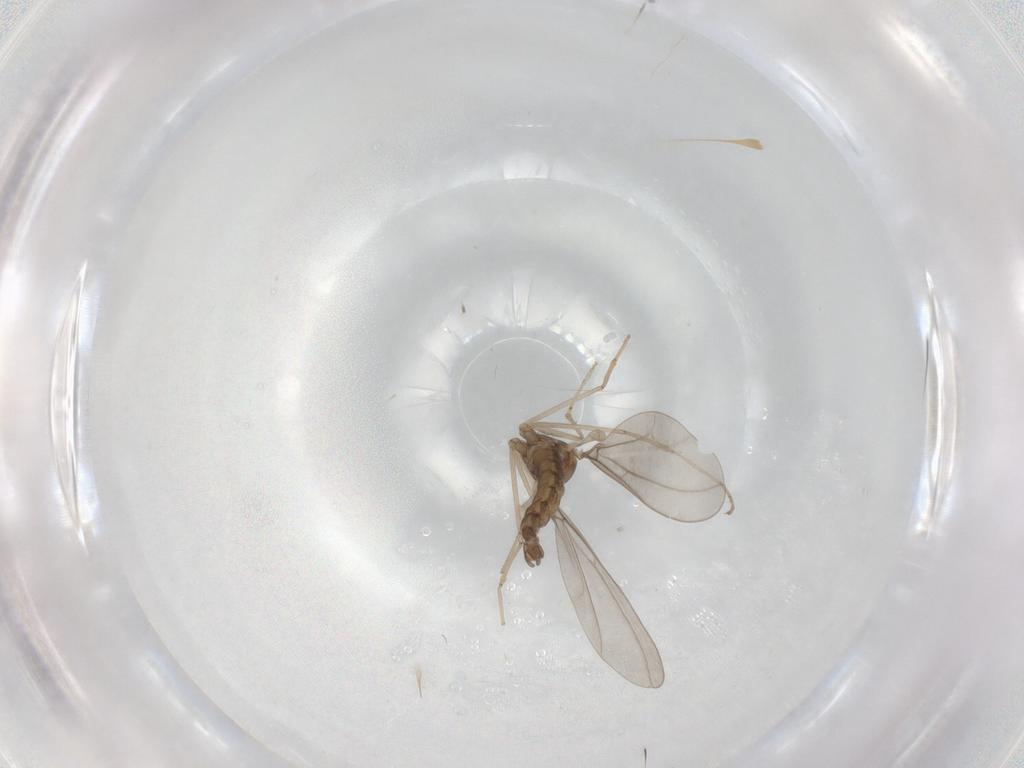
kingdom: Animalia
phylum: Arthropoda
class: Insecta
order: Diptera
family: Cecidomyiidae
